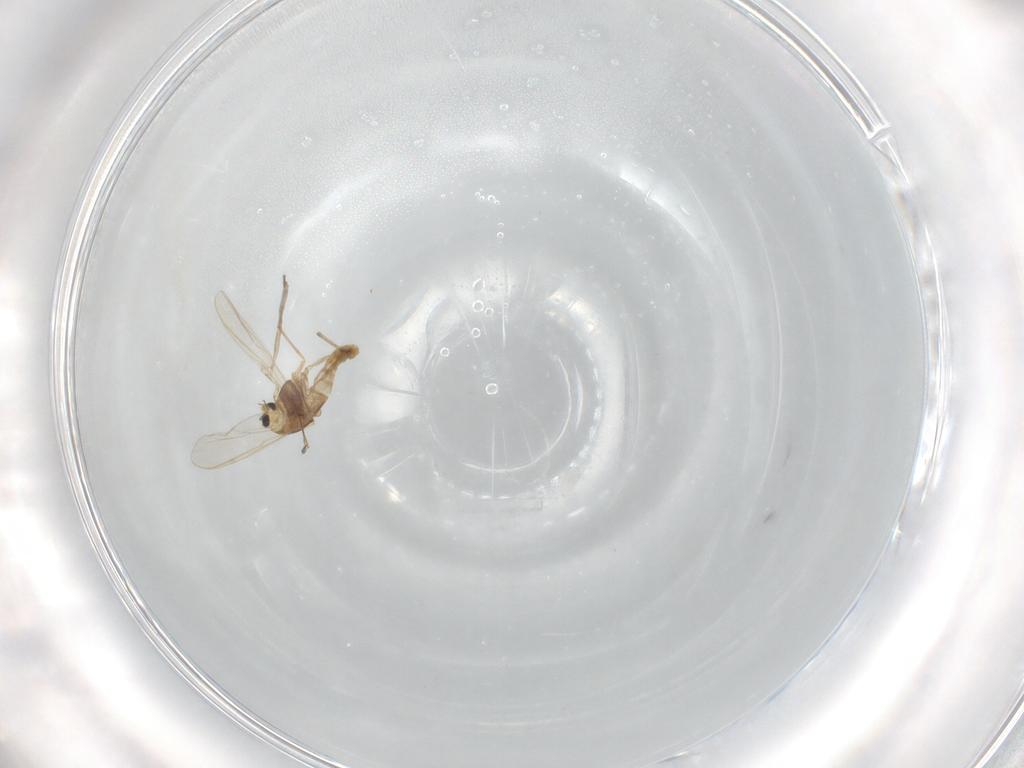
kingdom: Animalia
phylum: Arthropoda
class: Insecta
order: Diptera
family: Chironomidae
